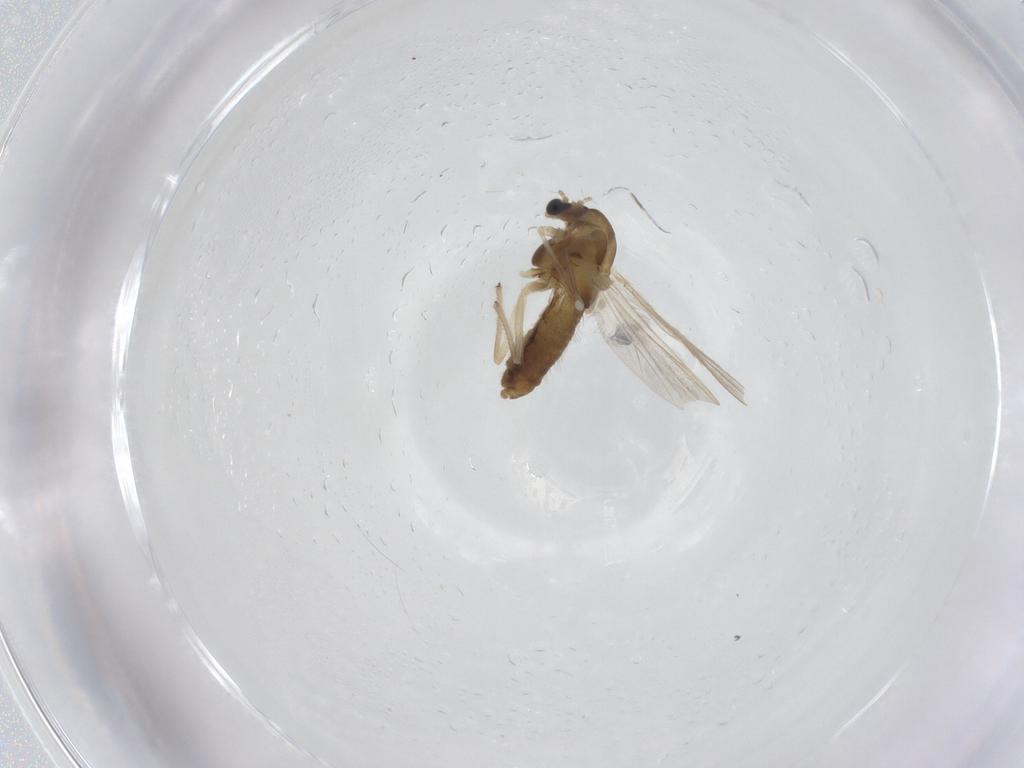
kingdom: Animalia
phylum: Arthropoda
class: Insecta
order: Diptera
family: Chironomidae
